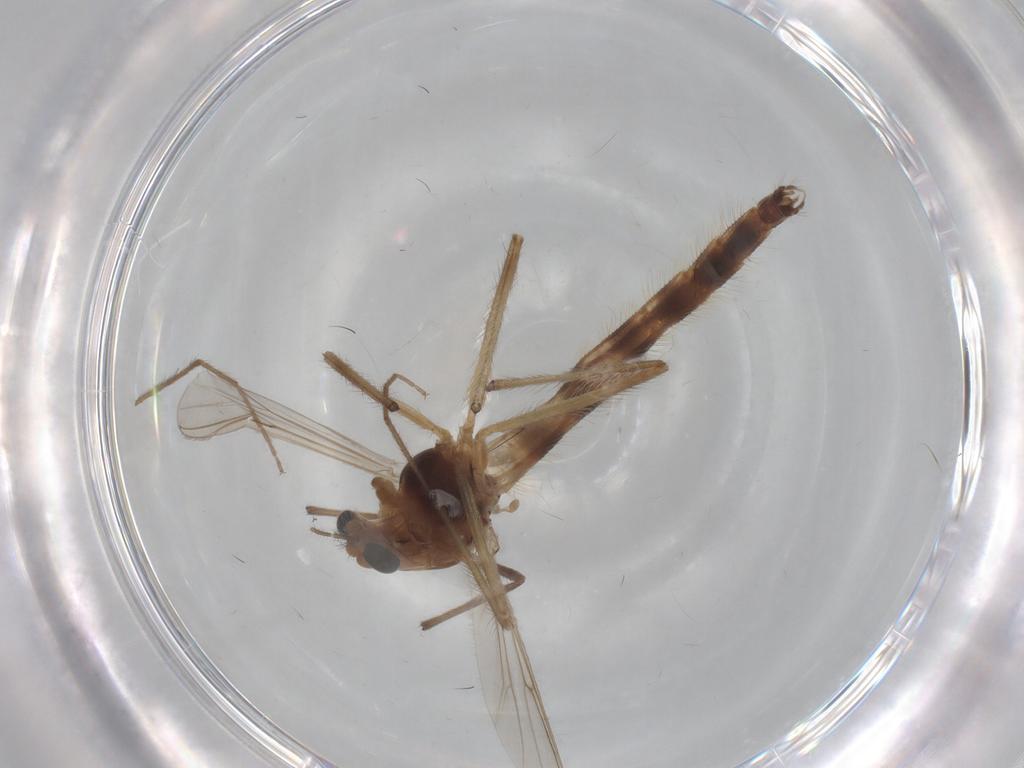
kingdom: Animalia
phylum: Arthropoda
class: Insecta
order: Diptera
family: Chironomidae
